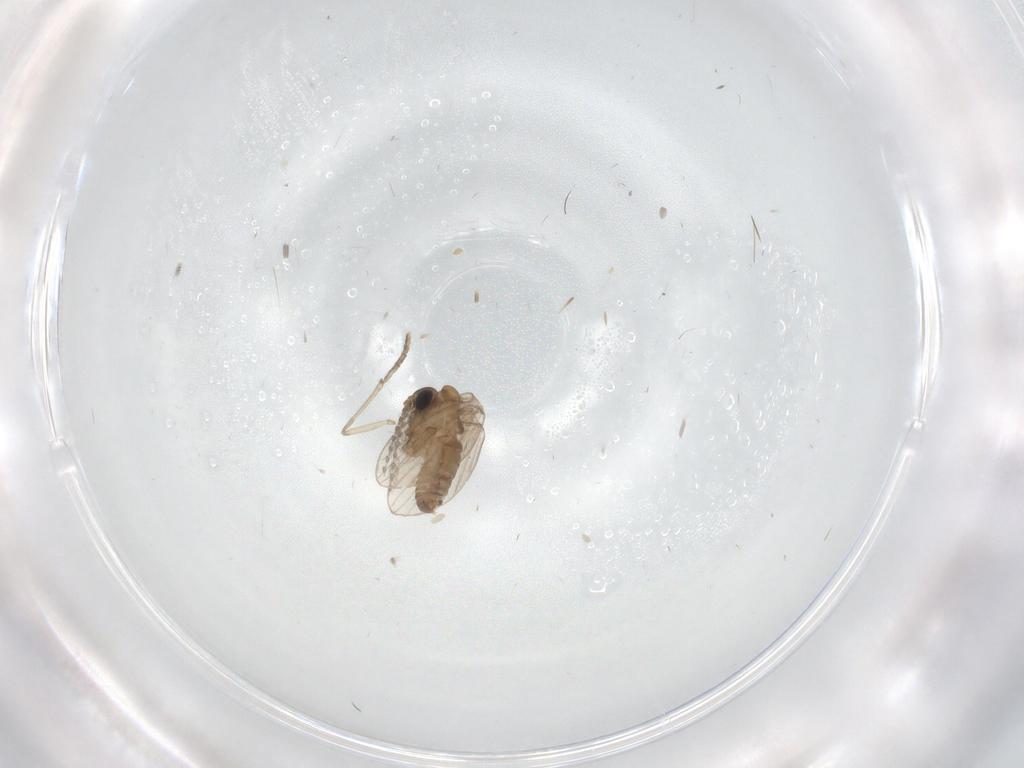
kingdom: Animalia
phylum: Arthropoda
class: Insecta
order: Diptera
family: Psychodidae
